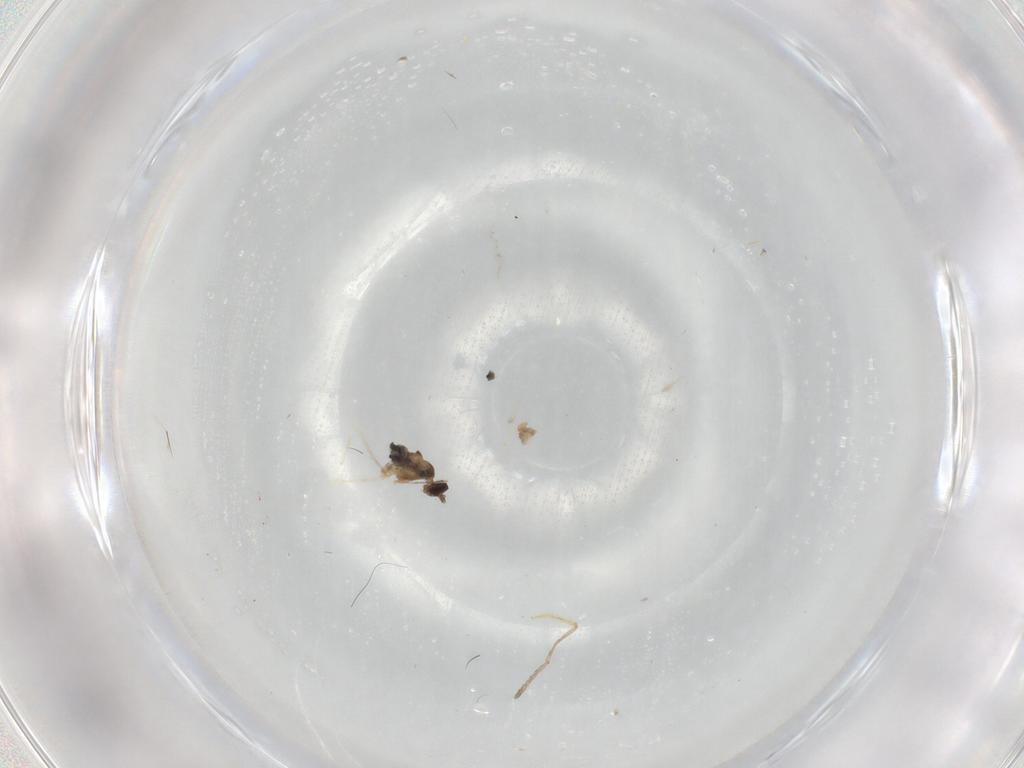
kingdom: Animalia
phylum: Arthropoda
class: Insecta
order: Diptera
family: Cecidomyiidae
